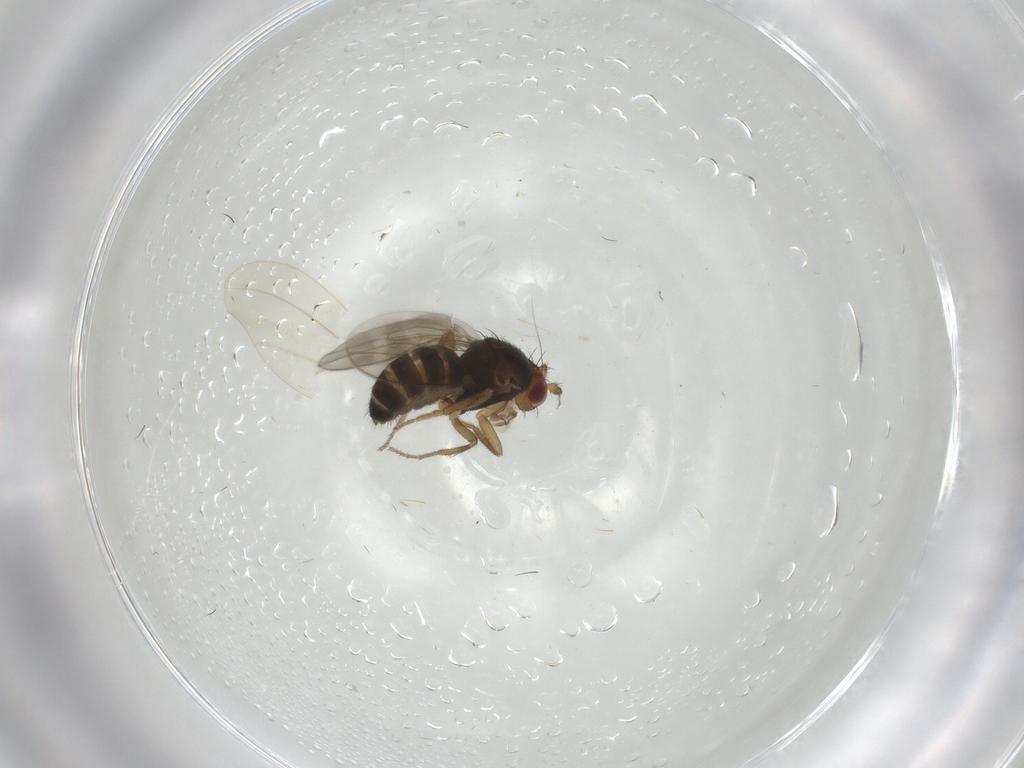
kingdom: Animalia
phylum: Arthropoda
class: Insecta
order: Diptera
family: Sphaeroceridae
